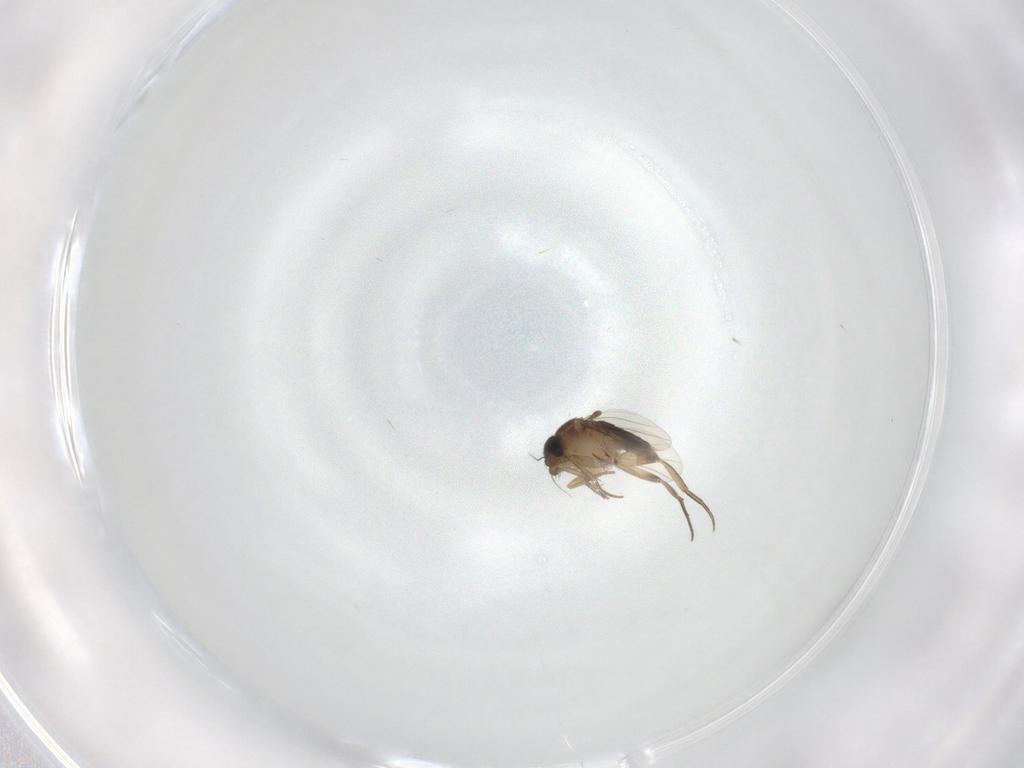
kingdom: Animalia
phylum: Arthropoda
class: Insecta
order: Diptera
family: Sciaridae
